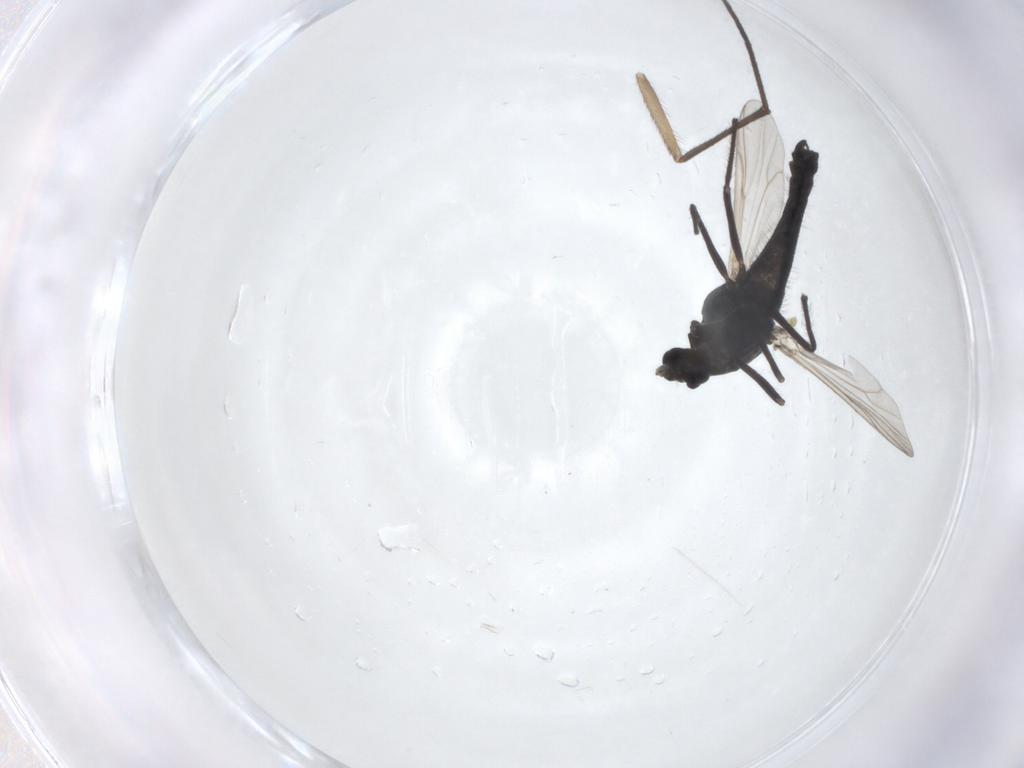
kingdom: Animalia
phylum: Arthropoda
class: Insecta
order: Diptera
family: Chironomidae
